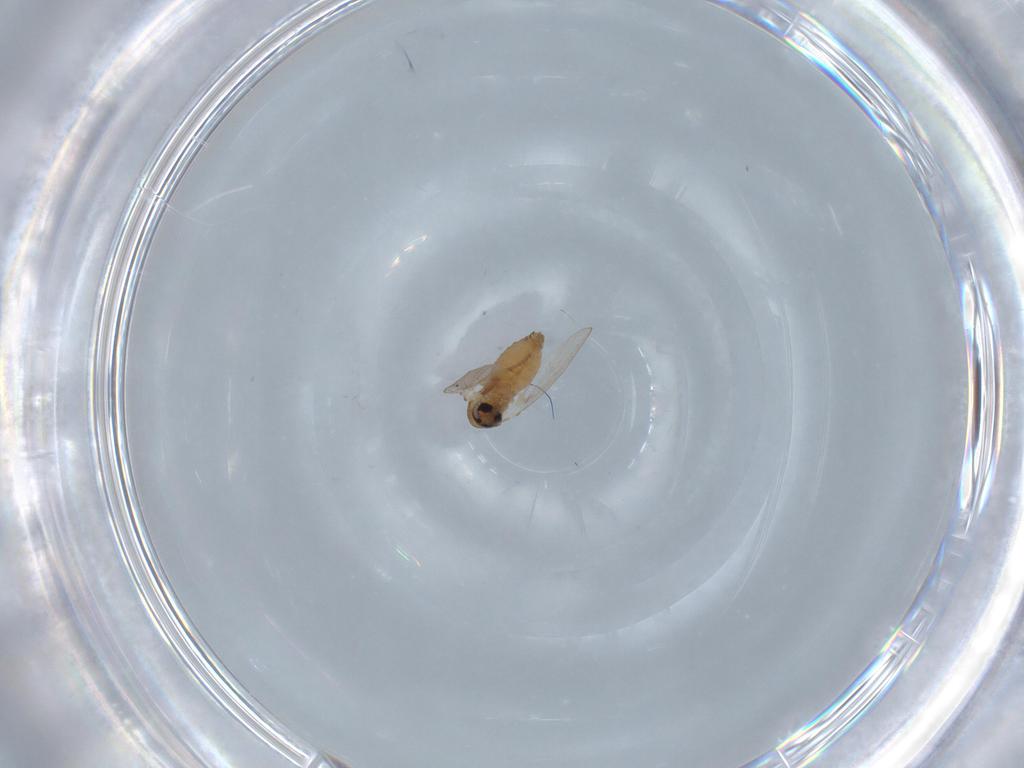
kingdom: Animalia
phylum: Arthropoda
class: Insecta
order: Diptera
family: Psychodidae
